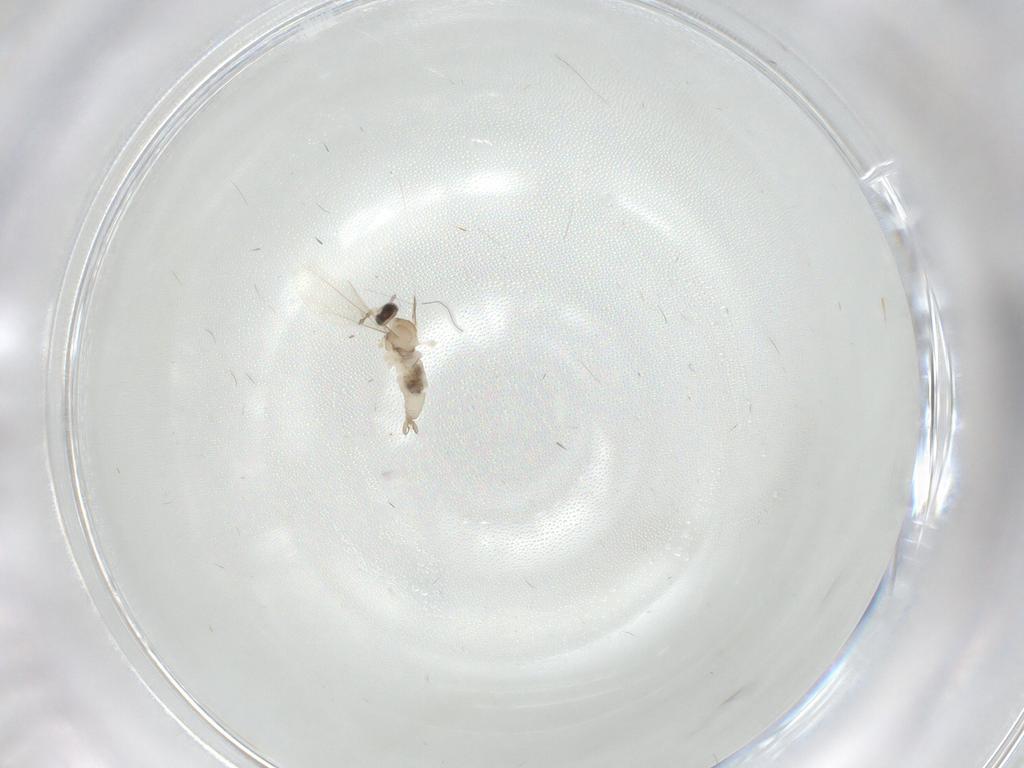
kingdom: Animalia
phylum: Arthropoda
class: Insecta
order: Diptera
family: Cecidomyiidae
